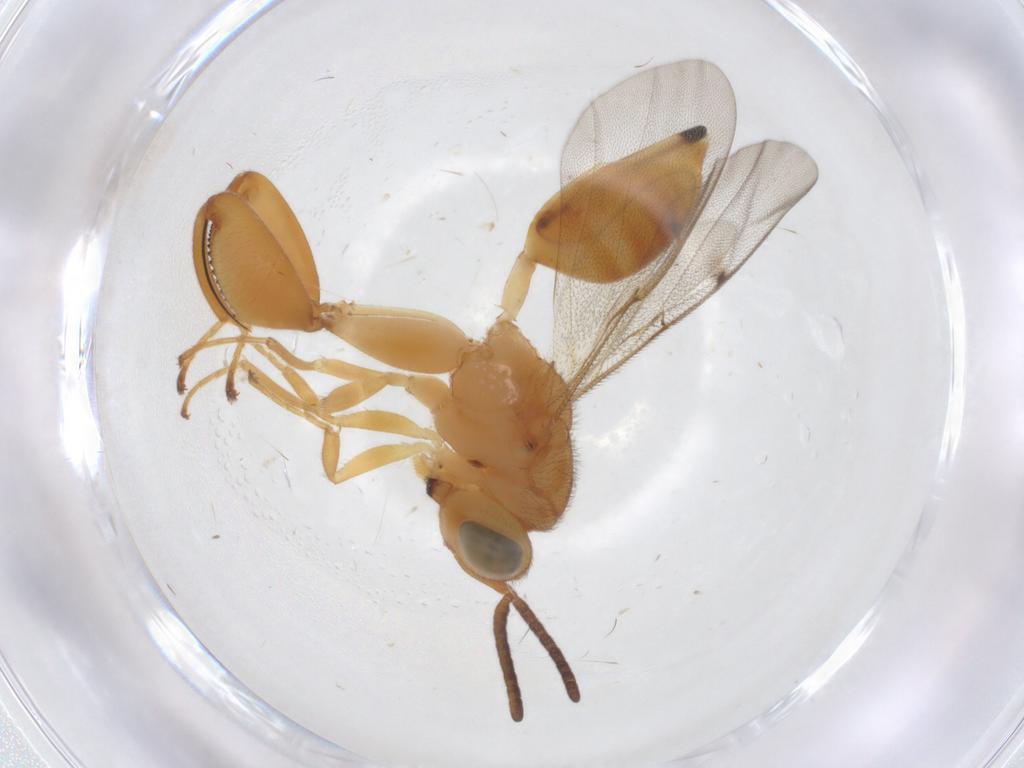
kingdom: Animalia
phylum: Arthropoda
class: Insecta
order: Hymenoptera
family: Chalcididae
